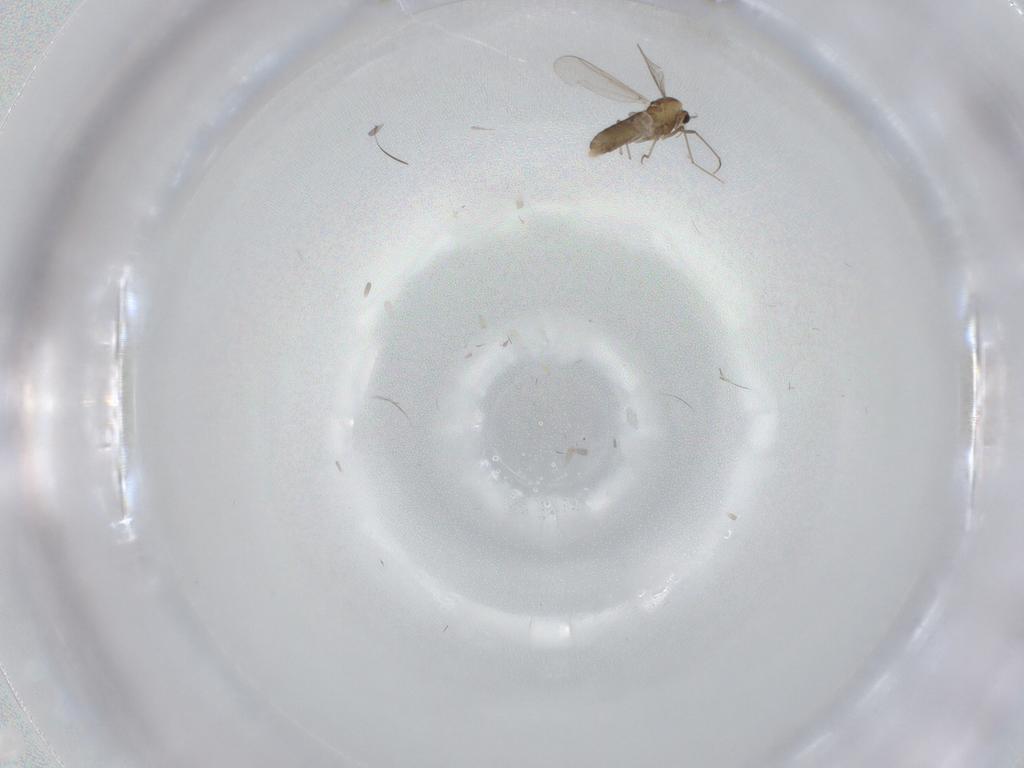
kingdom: Animalia
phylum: Arthropoda
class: Insecta
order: Diptera
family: Chironomidae
